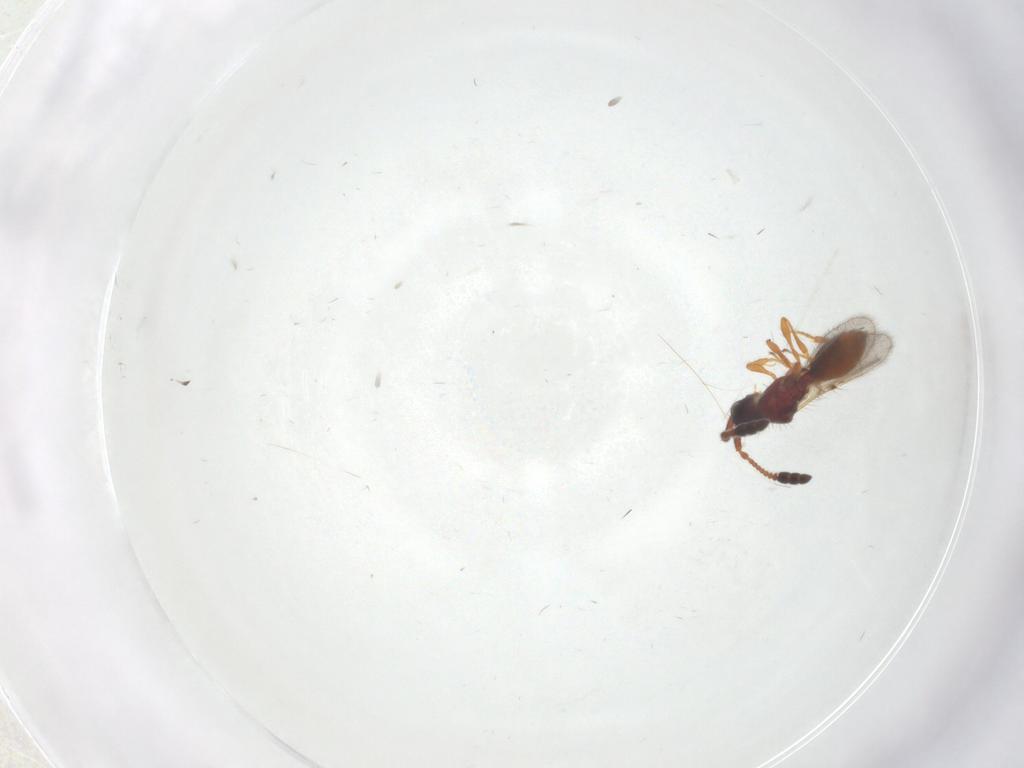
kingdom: Animalia
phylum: Arthropoda
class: Insecta
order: Hymenoptera
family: Diapriidae
